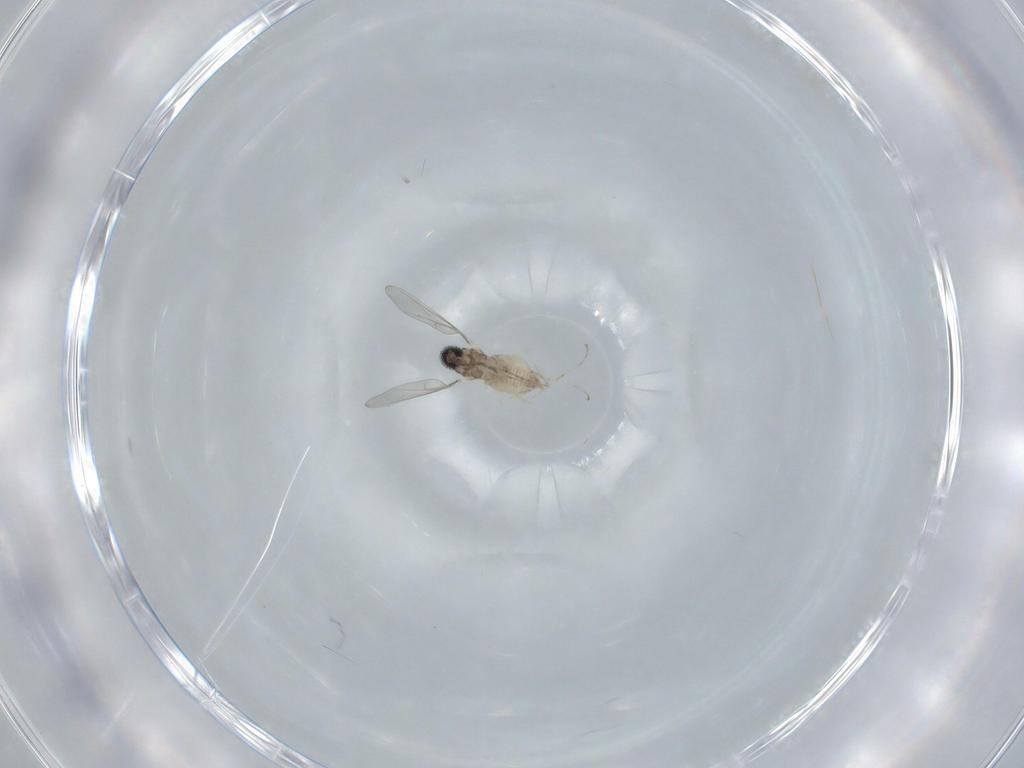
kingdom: Animalia
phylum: Arthropoda
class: Insecta
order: Diptera
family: Cecidomyiidae
